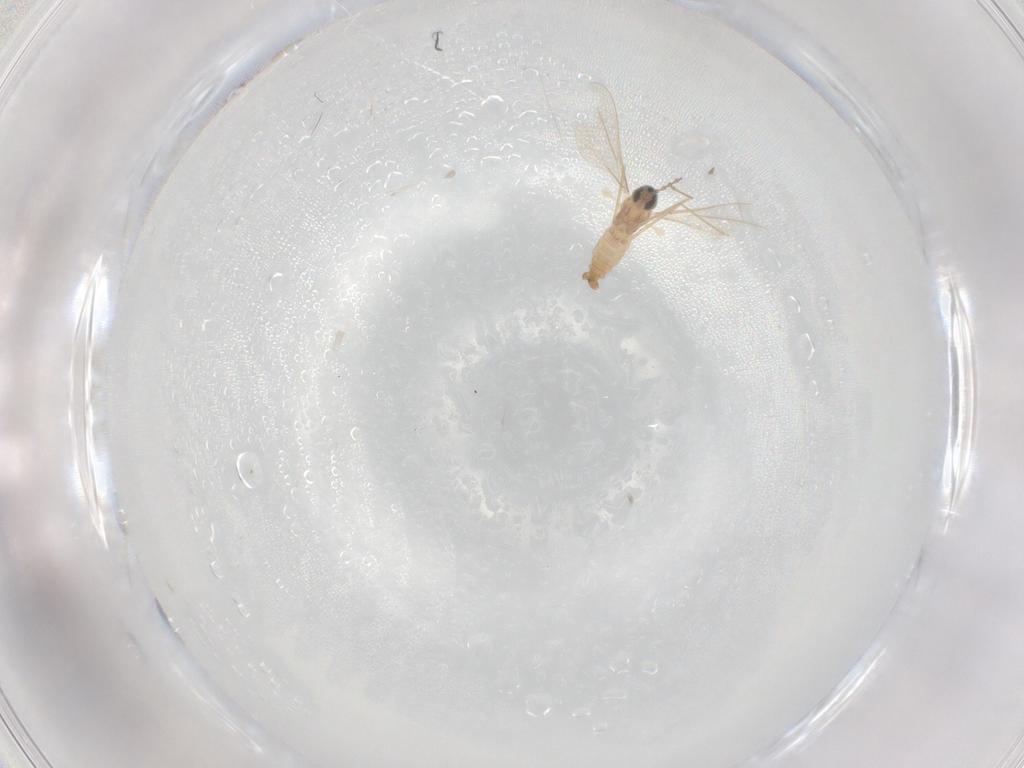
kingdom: Animalia
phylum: Arthropoda
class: Insecta
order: Diptera
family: Cecidomyiidae
